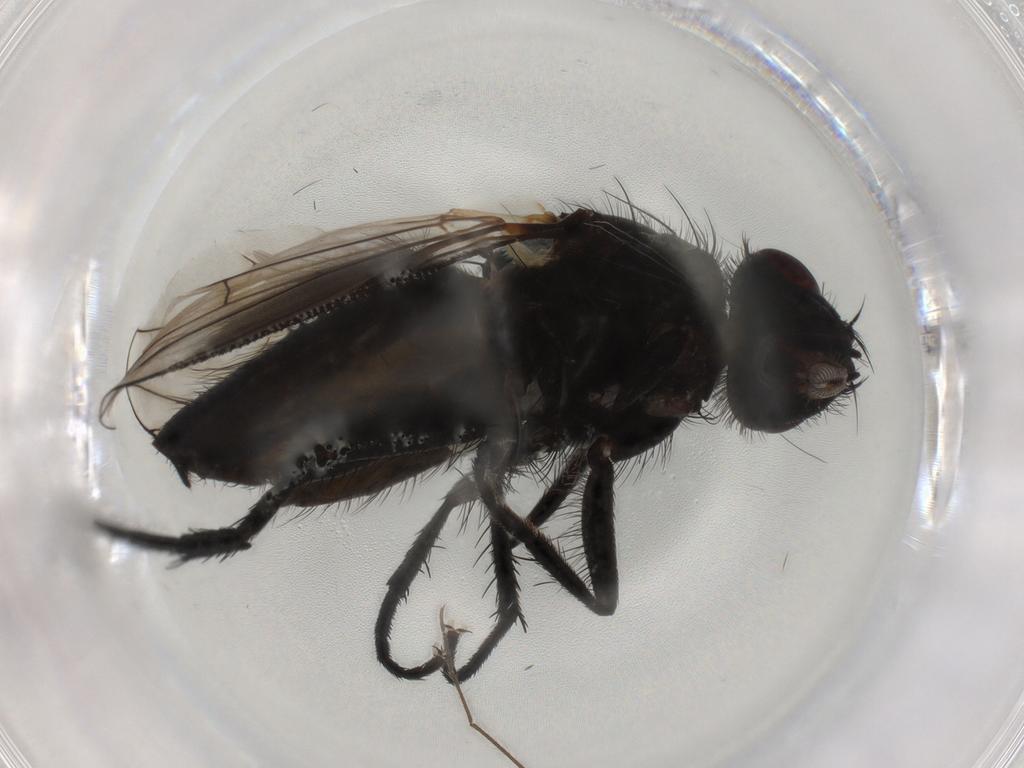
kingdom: Animalia
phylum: Arthropoda
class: Insecta
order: Diptera
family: Muscidae
